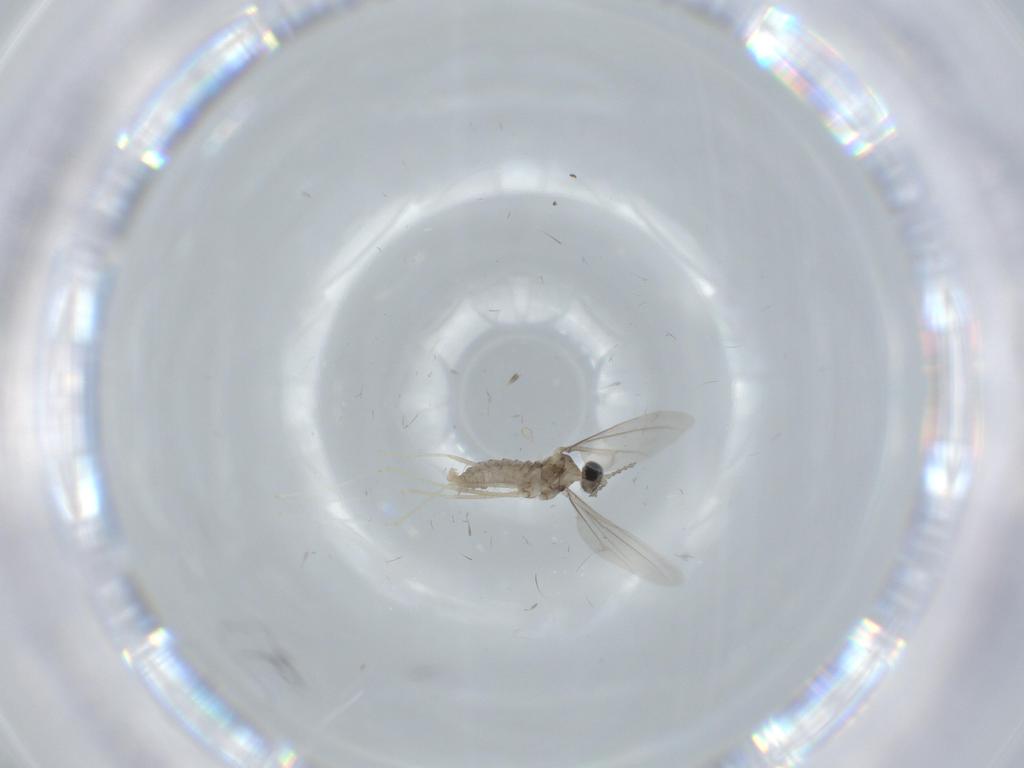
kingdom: Animalia
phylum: Arthropoda
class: Insecta
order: Diptera
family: Cecidomyiidae
